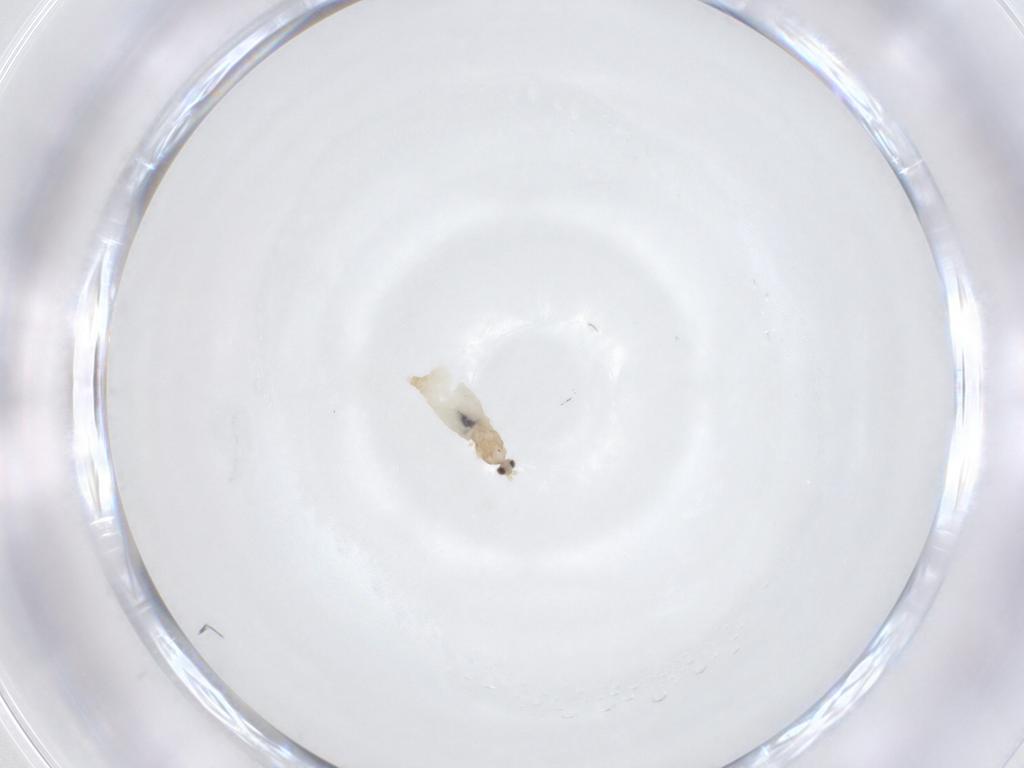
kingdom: Animalia
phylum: Arthropoda
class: Insecta
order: Diptera
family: Cecidomyiidae
